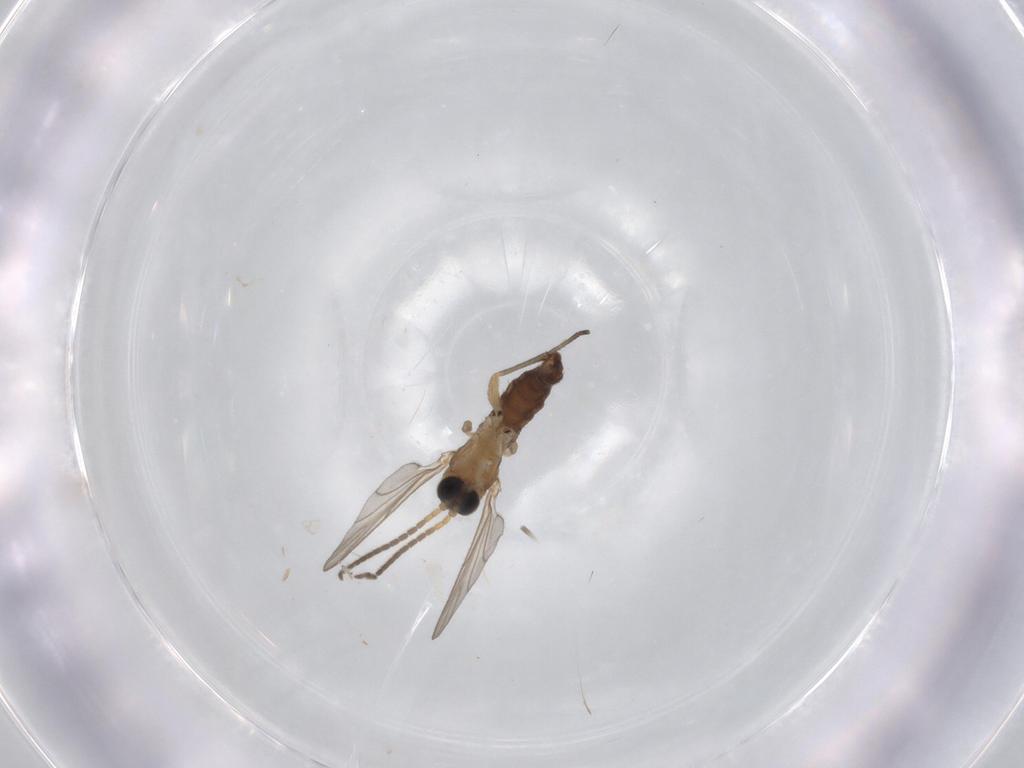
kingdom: Animalia
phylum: Arthropoda
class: Insecta
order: Diptera
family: Sciaridae
